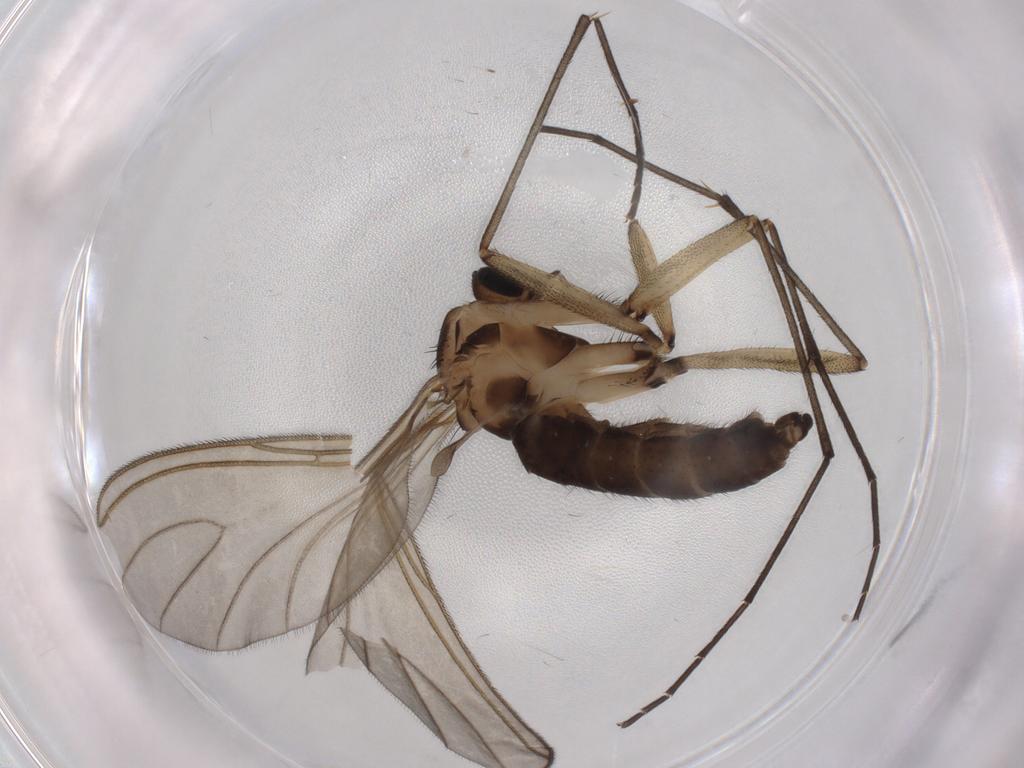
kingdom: Animalia
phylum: Arthropoda
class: Insecta
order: Diptera
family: Sciaridae
